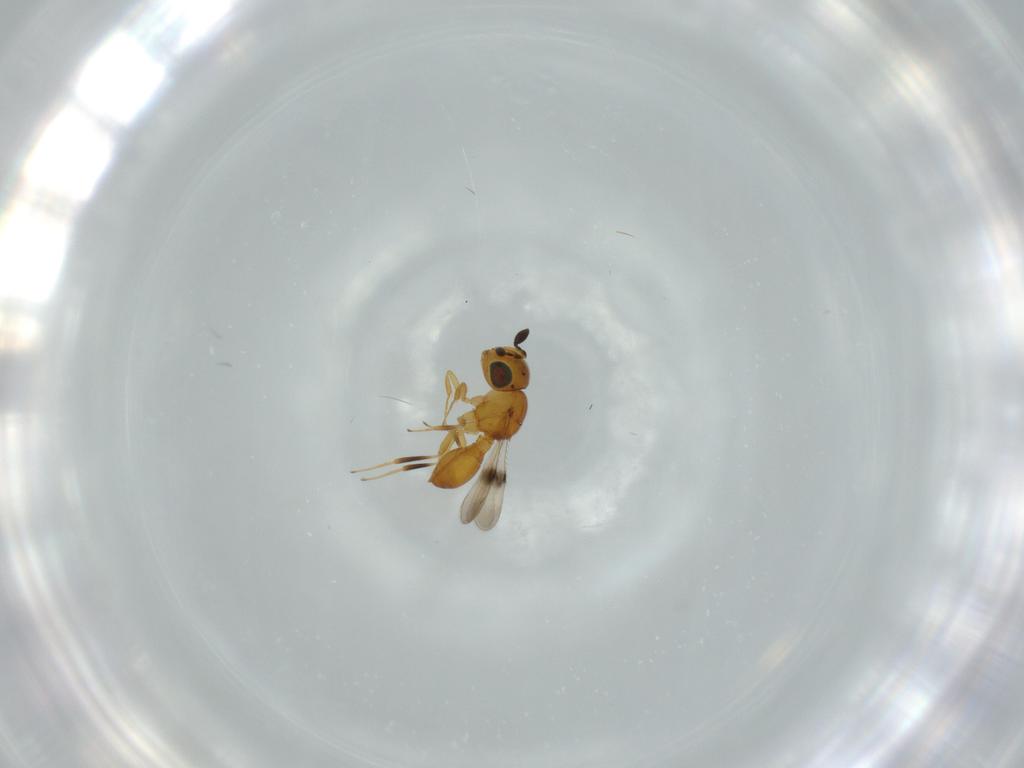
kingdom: Animalia
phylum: Arthropoda
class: Insecta
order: Hymenoptera
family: Scelionidae
